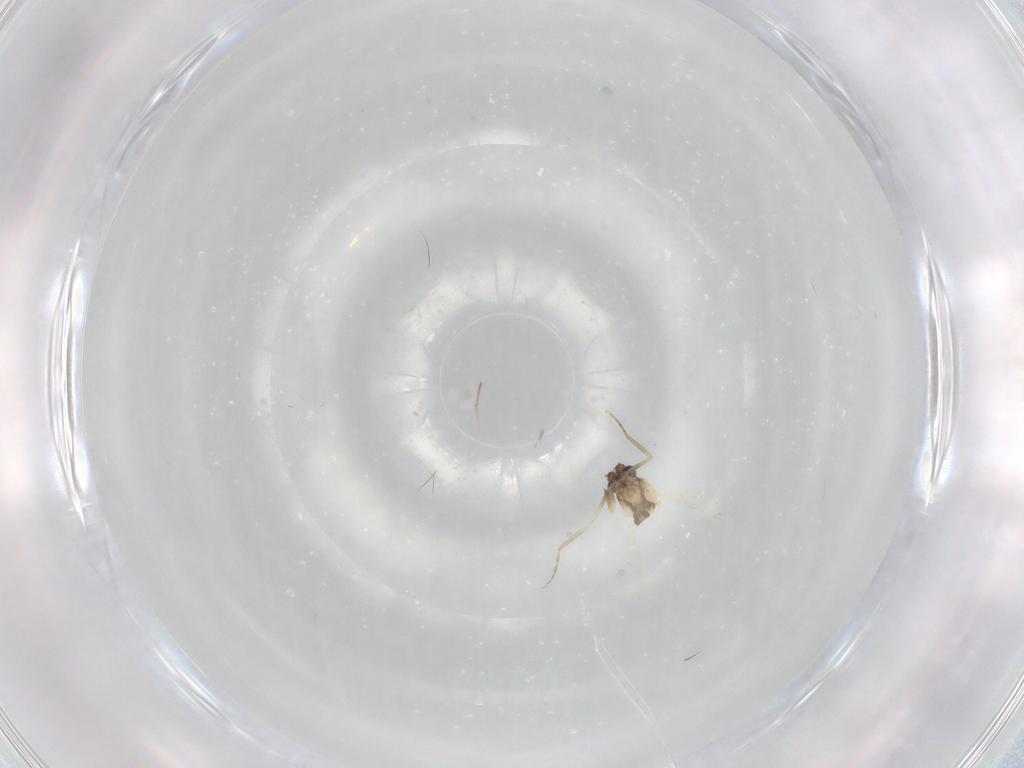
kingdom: Animalia
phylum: Arthropoda
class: Insecta
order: Diptera
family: Ceratopogonidae
